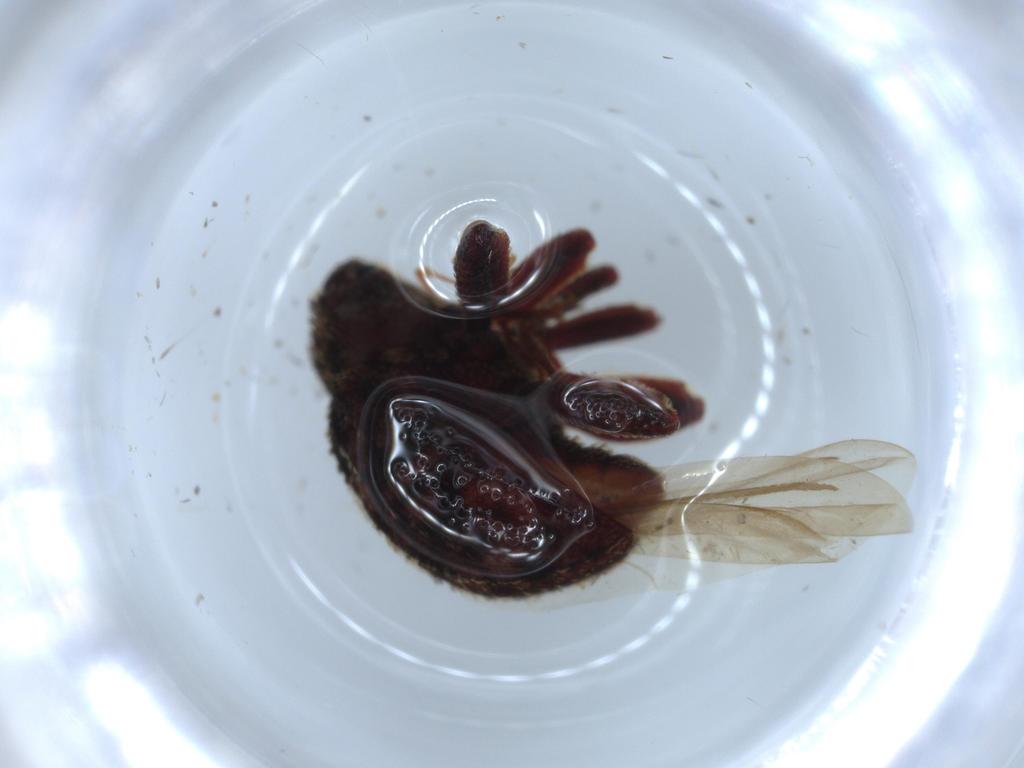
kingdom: Animalia
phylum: Arthropoda
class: Insecta
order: Coleoptera
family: Curculionidae
